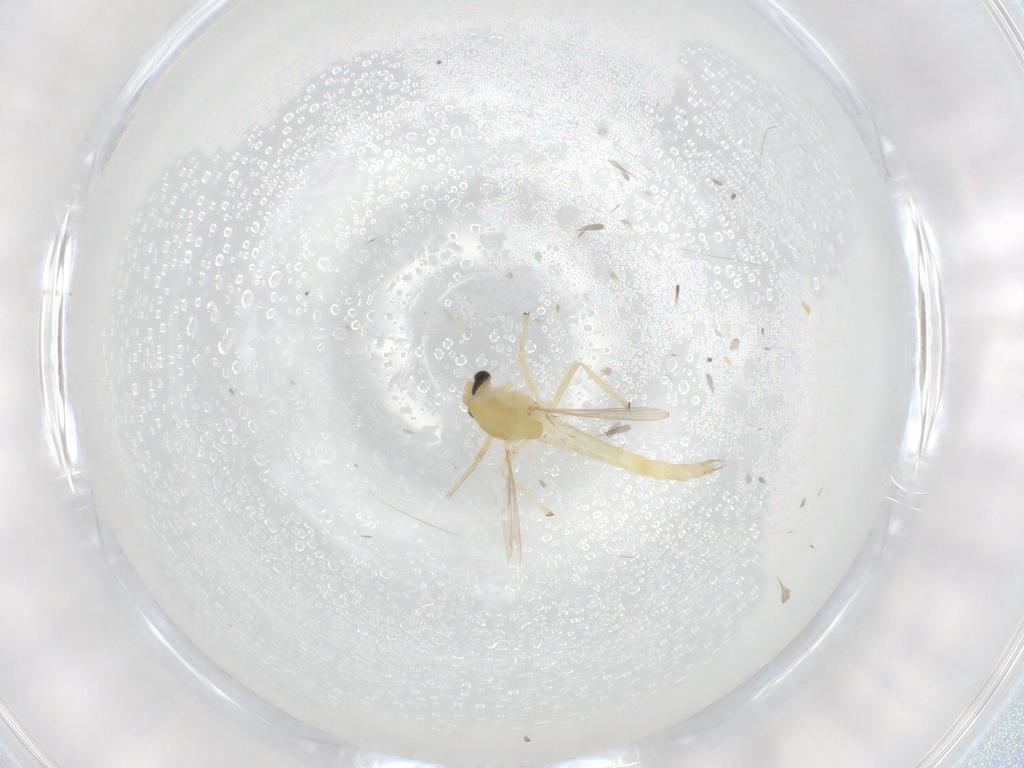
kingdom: Animalia
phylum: Arthropoda
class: Insecta
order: Diptera
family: Chironomidae
